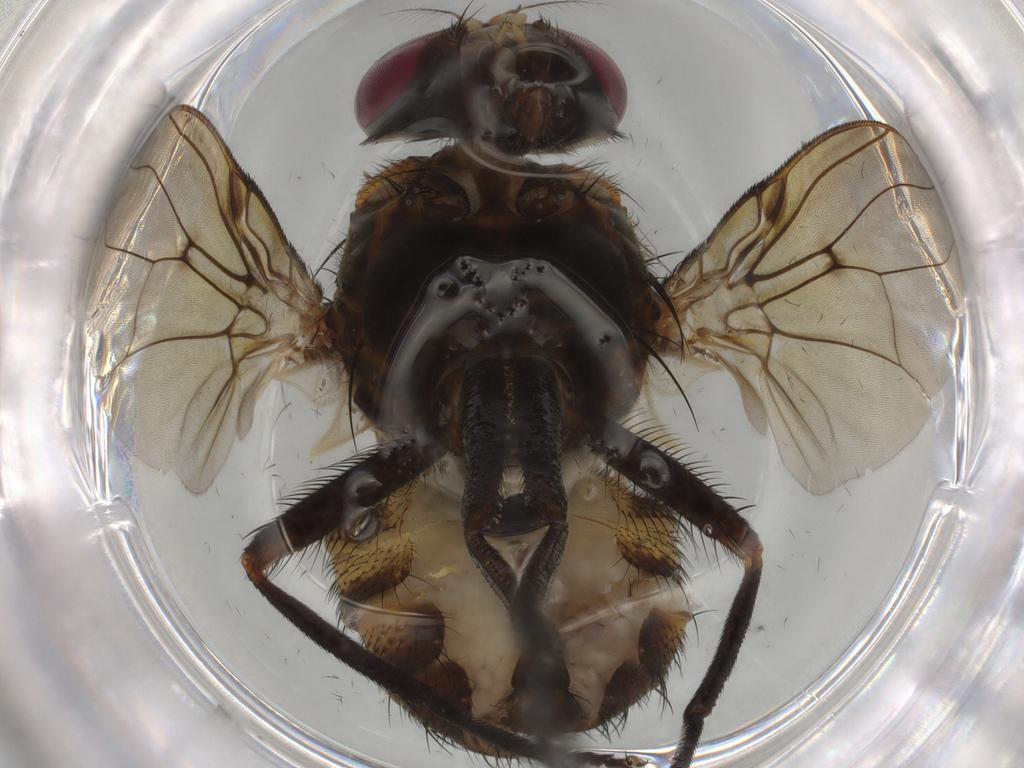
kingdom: Animalia
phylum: Arthropoda
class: Insecta
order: Diptera
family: Muscidae
